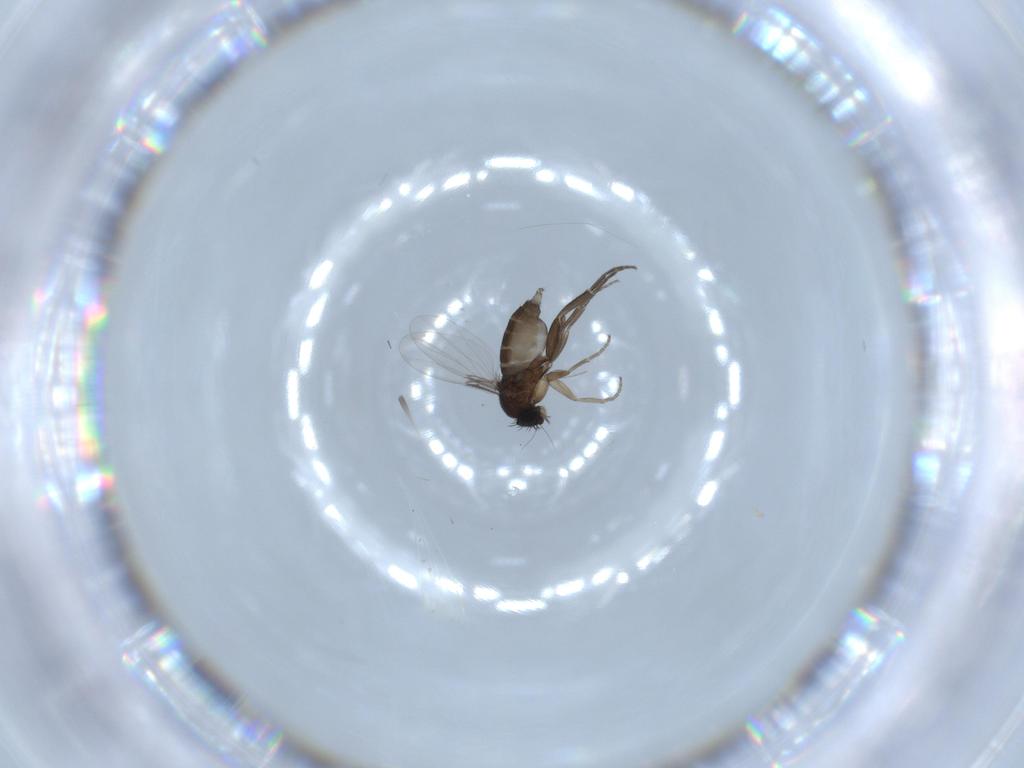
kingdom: Animalia
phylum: Arthropoda
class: Insecta
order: Diptera
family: Phoridae
